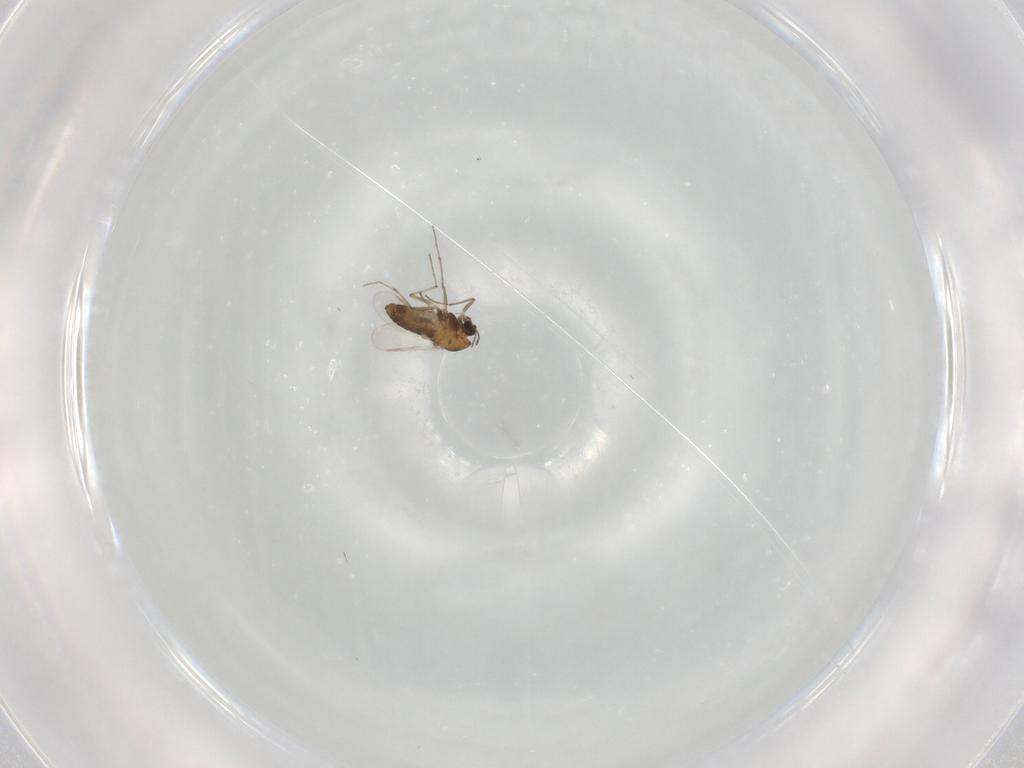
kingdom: Animalia
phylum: Arthropoda
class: Insecta
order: Diptera
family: Chironomidae
